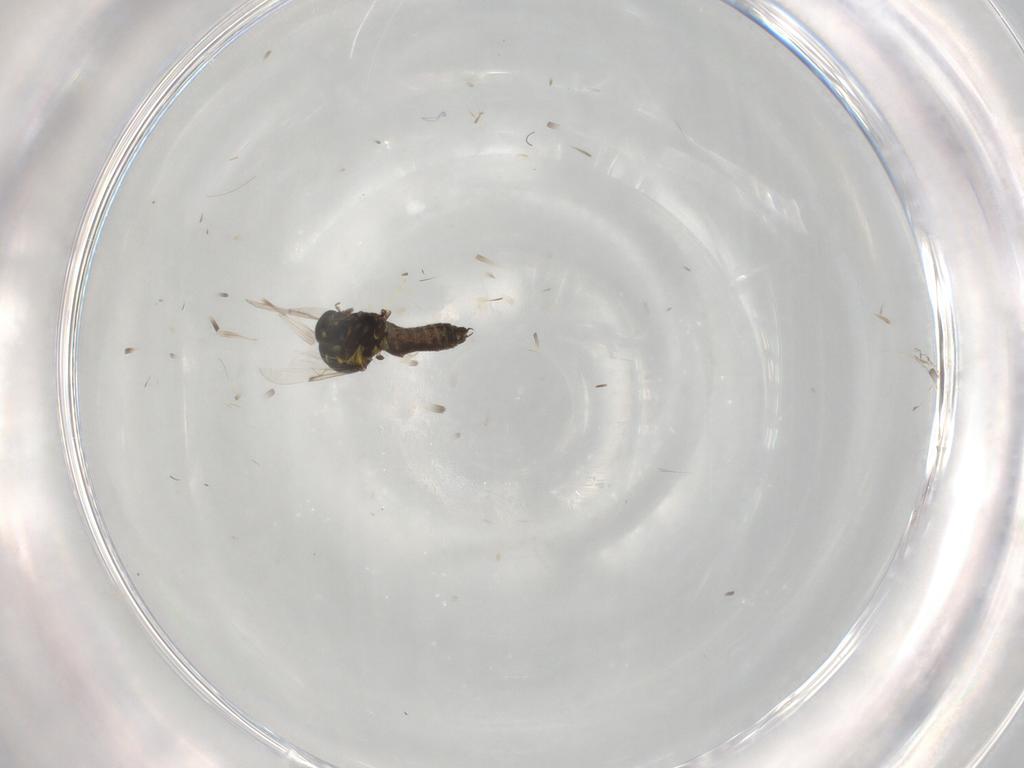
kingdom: Animalia
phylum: Arthropoda
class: Insecta
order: Diptera
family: Ceratopogonidae
